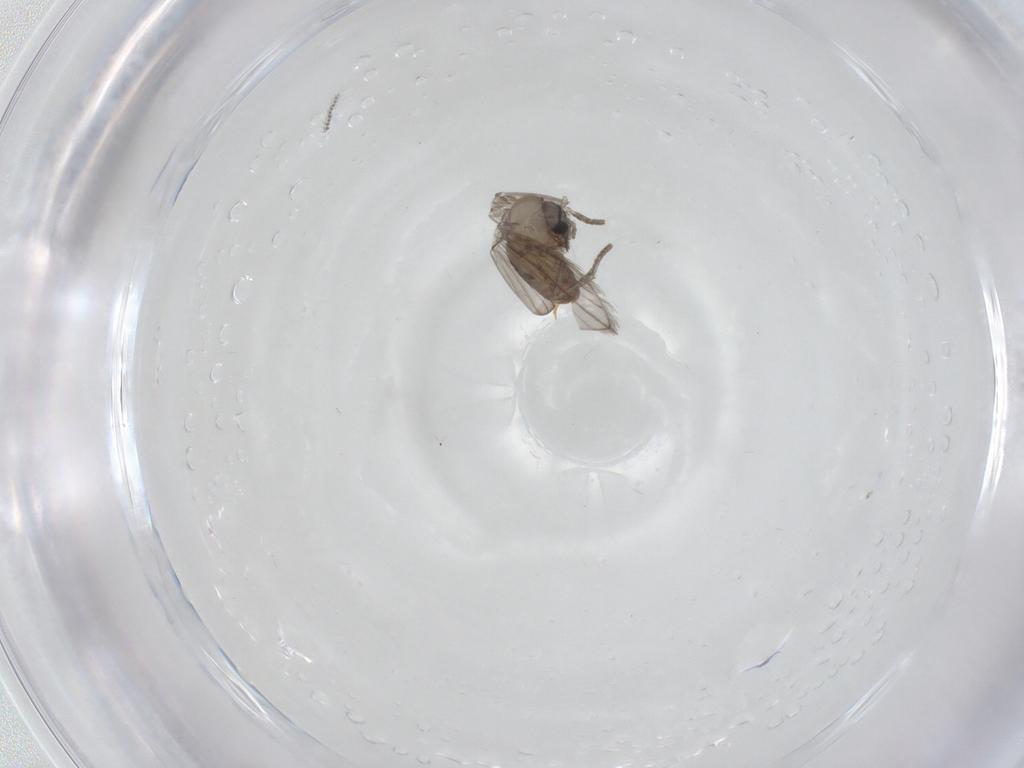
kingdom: Animalia
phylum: Arthropoda
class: Insecta
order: Diptera
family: Psychodidae
